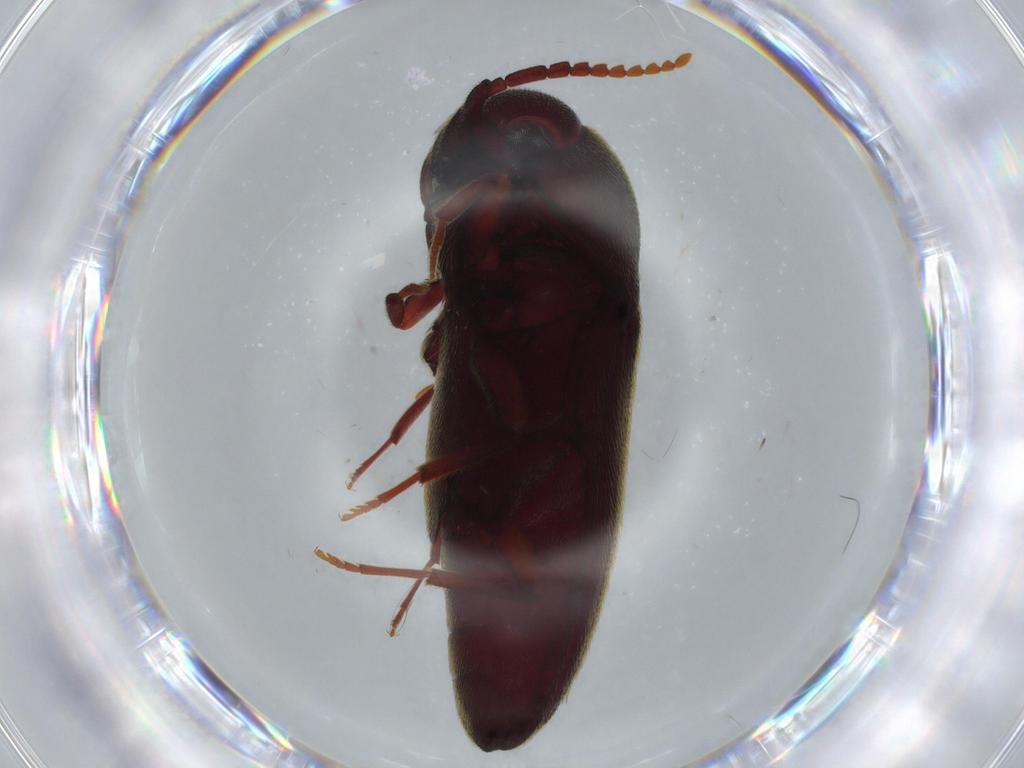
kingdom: Animalia
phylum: Arthropoda
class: Insecta
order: Coleoptera
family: Eucnemidae
